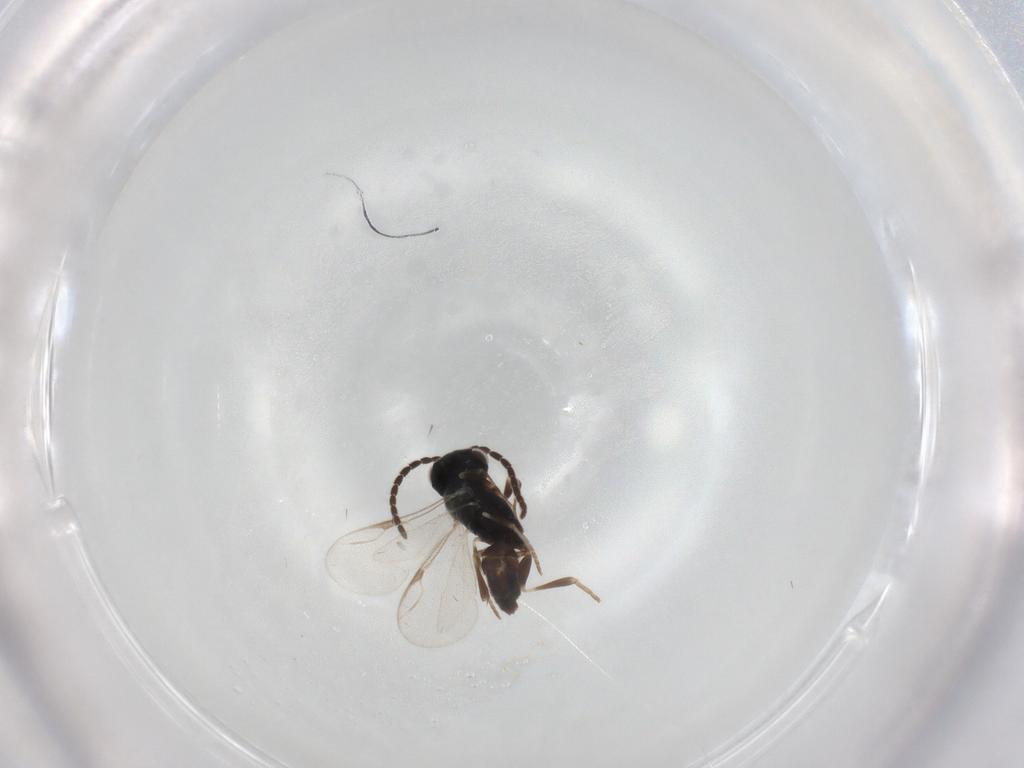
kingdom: Animalia
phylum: Arthropoda
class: Insecta
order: Hymenoptera
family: Dryinidae
